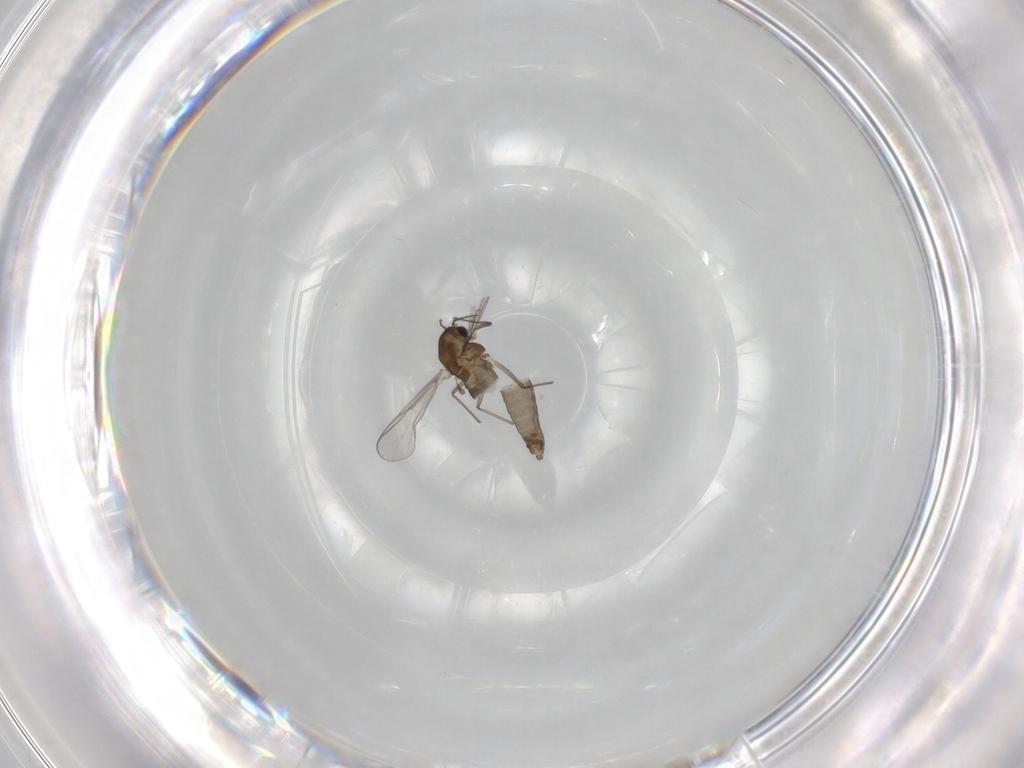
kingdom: Animalia
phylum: Arthropoda
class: Insecta
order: Diptera
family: Chironomidae
